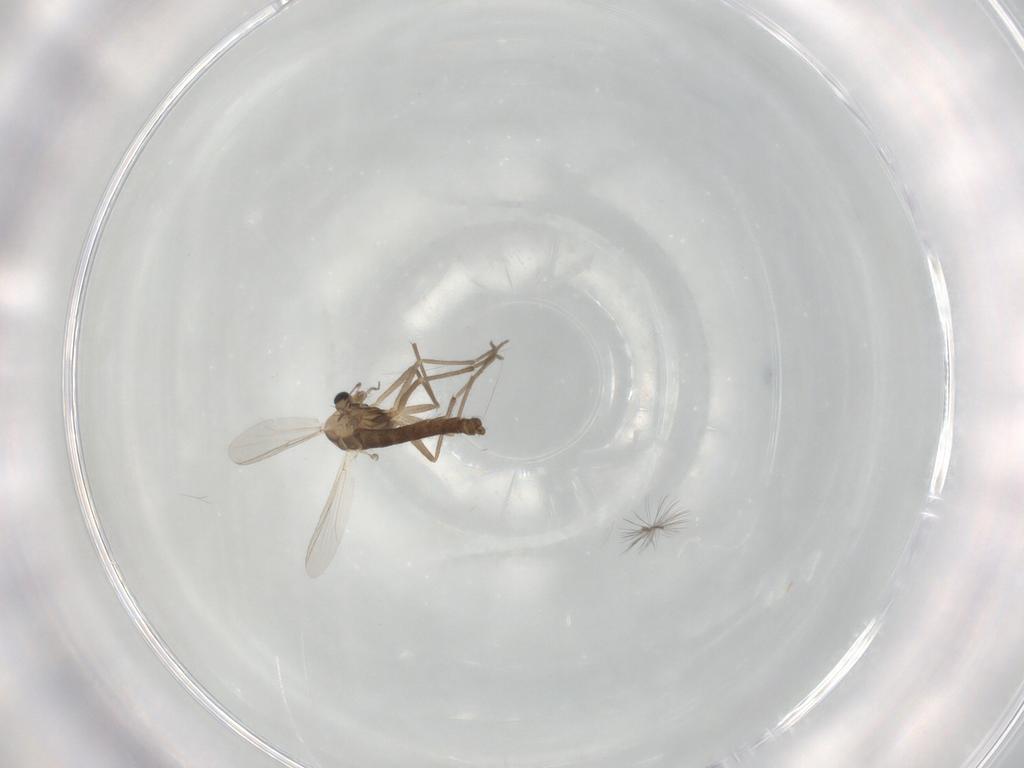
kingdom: Animalia
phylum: Arthropoda
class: Insecta
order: Diptera
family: Chironomidae
